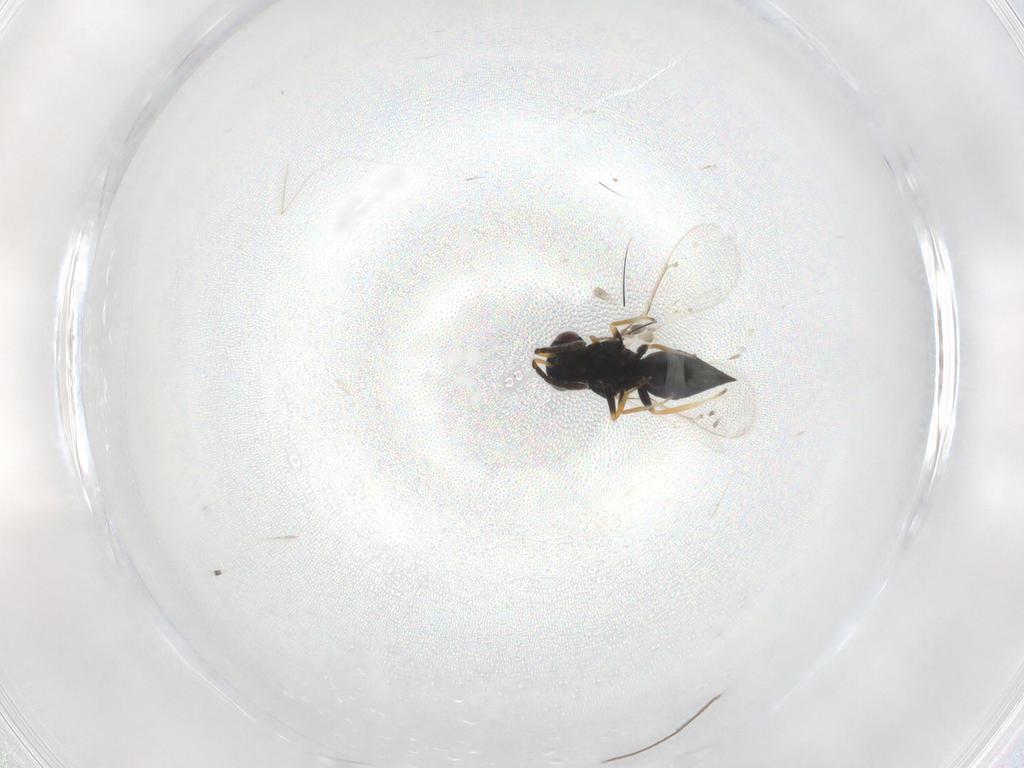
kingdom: Animalia
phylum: Arthropoda
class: Insecta
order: Hymenoptera
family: Eulophidae
